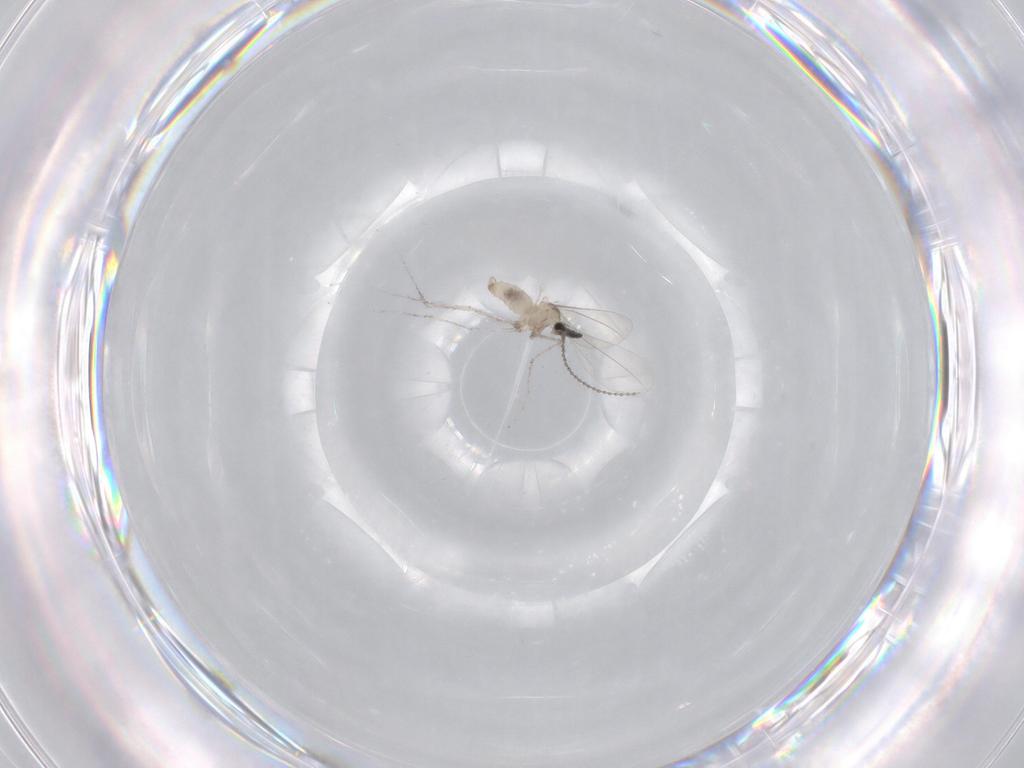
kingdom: Animalia
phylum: Arthropoda
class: Insecta
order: Diptera
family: Cecidomyiidae
